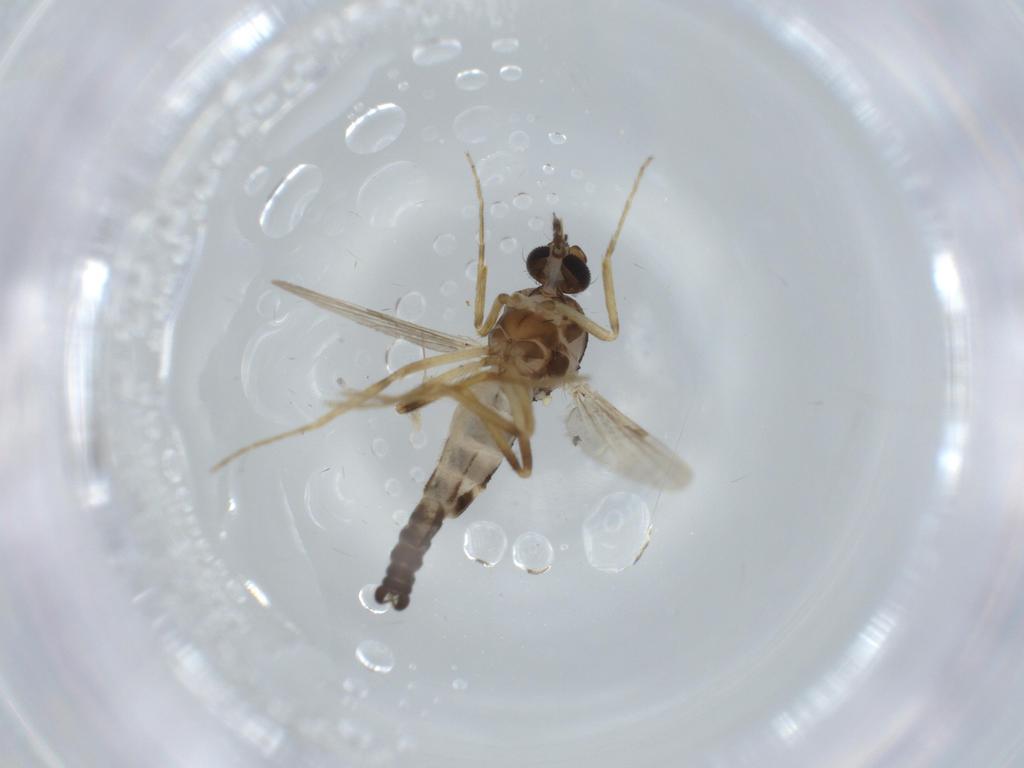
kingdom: Animalia
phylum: Arthropoda
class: Insecta
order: Diptera
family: Ceratopogonidae
